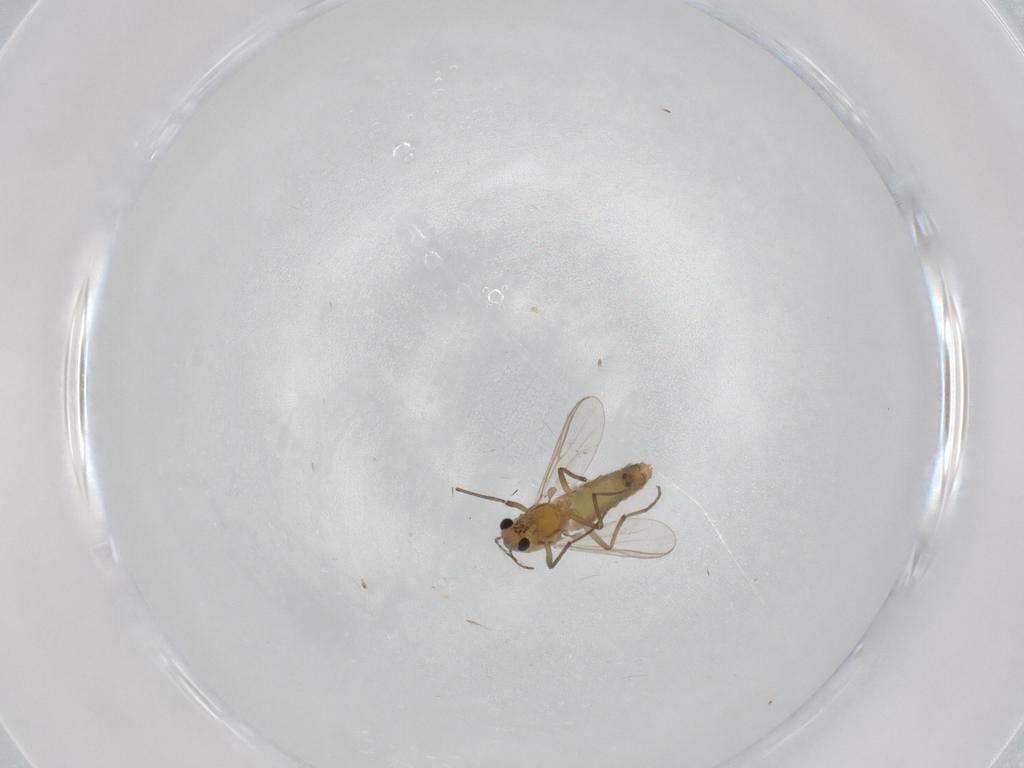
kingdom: Animalia
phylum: Arthropoda
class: Insecta
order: Diptera
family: Chironomidae
